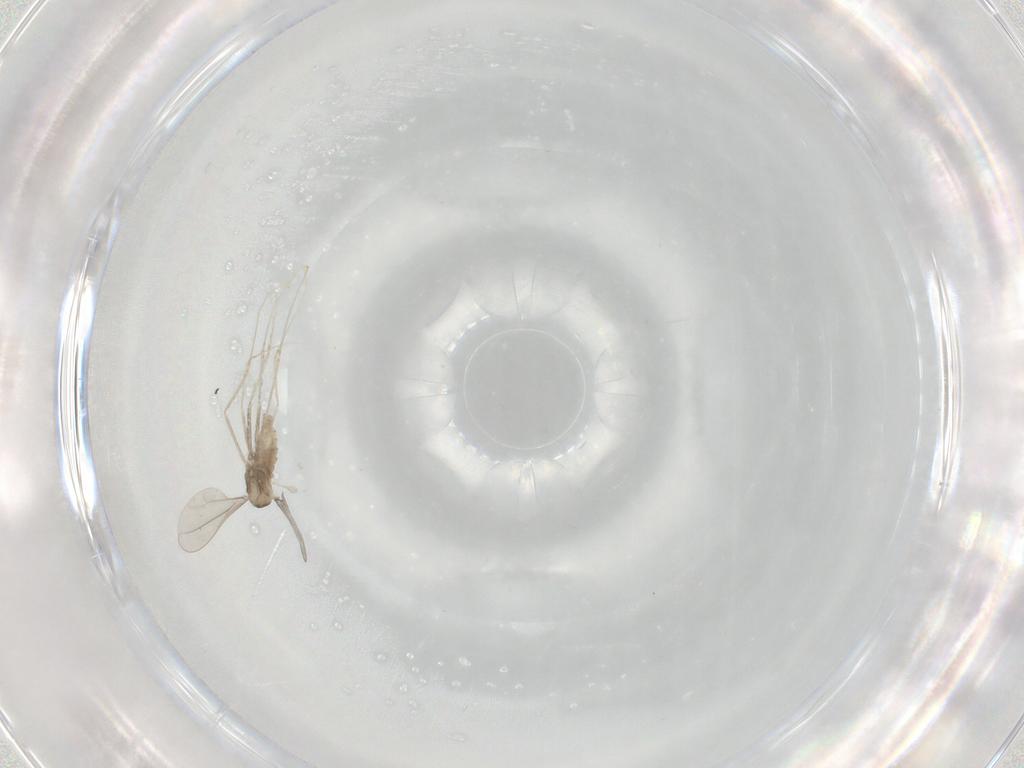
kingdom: Animalia
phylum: Arthropoda
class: Insecta
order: Diptera
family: Cecidomyiidae
